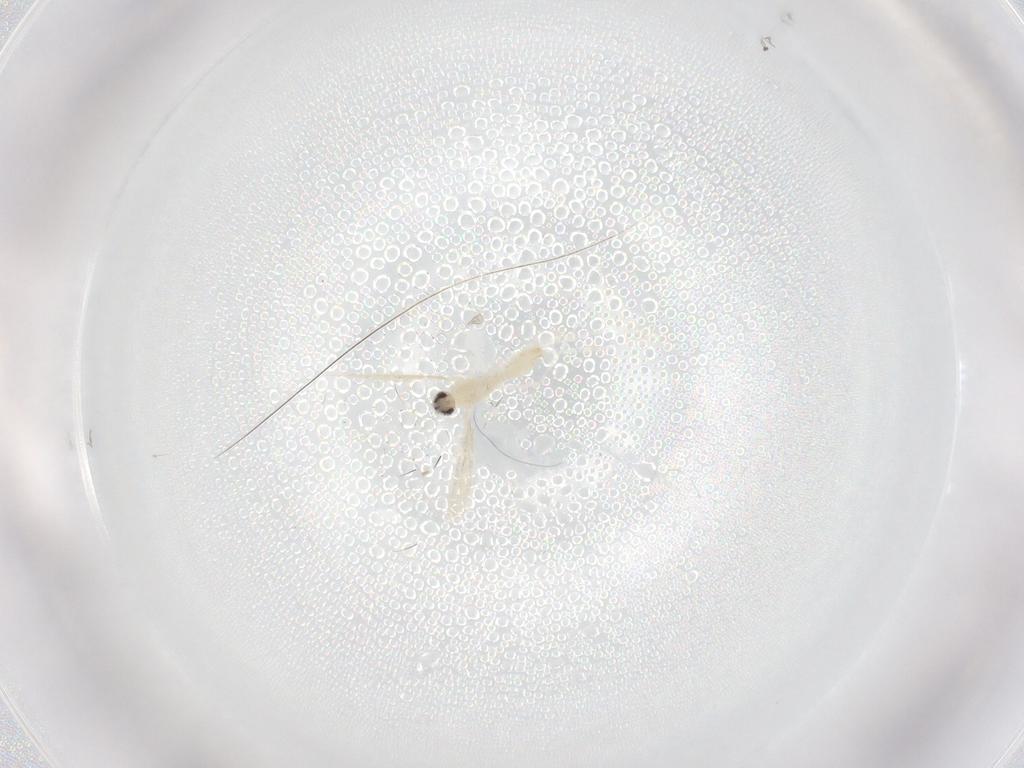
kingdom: Animalia
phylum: Arthropoda
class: Insecta
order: Diptera
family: Cecidomyiidae
